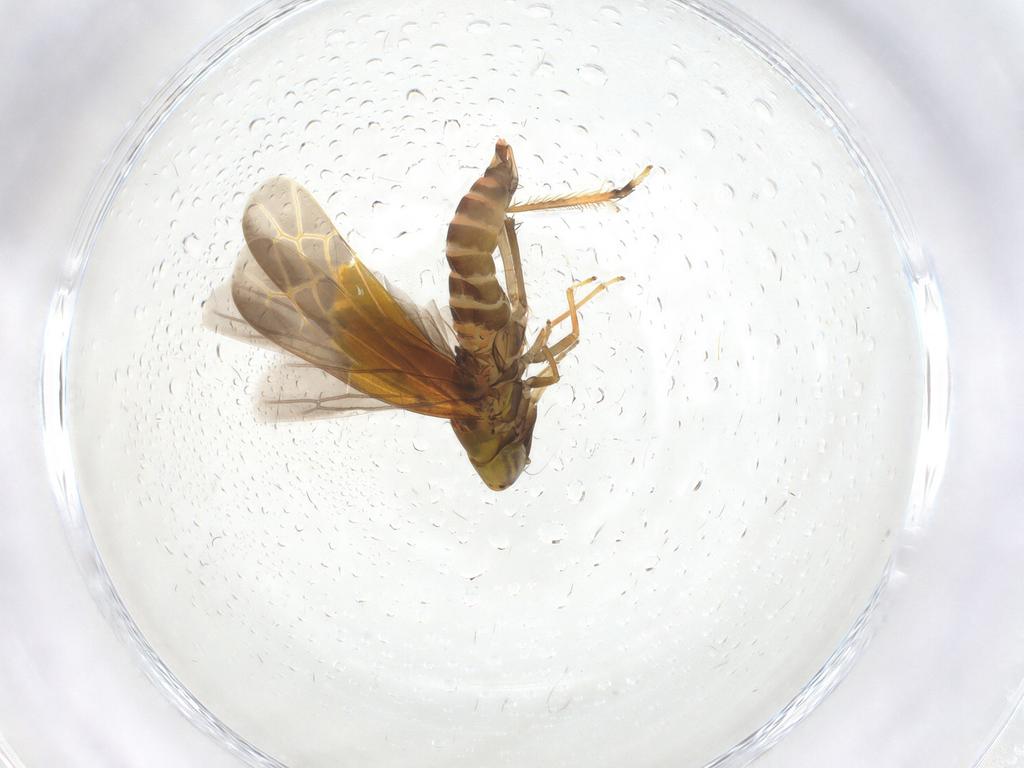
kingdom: Animalia
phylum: Arthropoda
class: Insecta
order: Hemiptera
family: Cicadellidae
